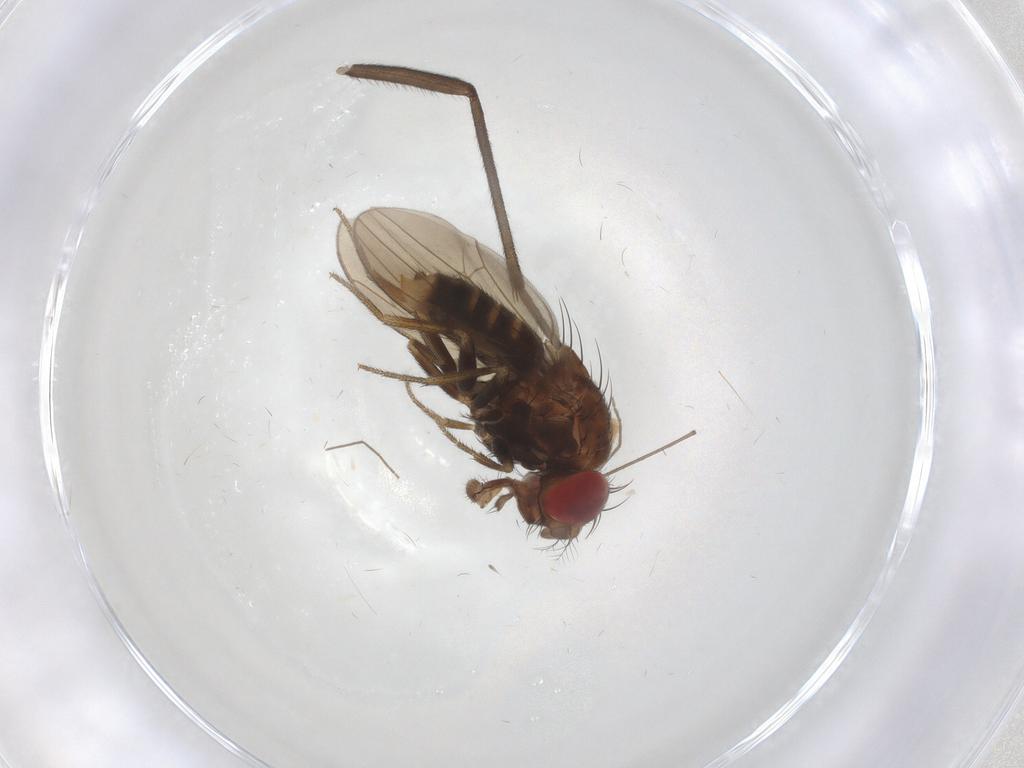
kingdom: Animalia
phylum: Arthropoda
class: Insecta
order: Diptera
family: Drosophilidae
